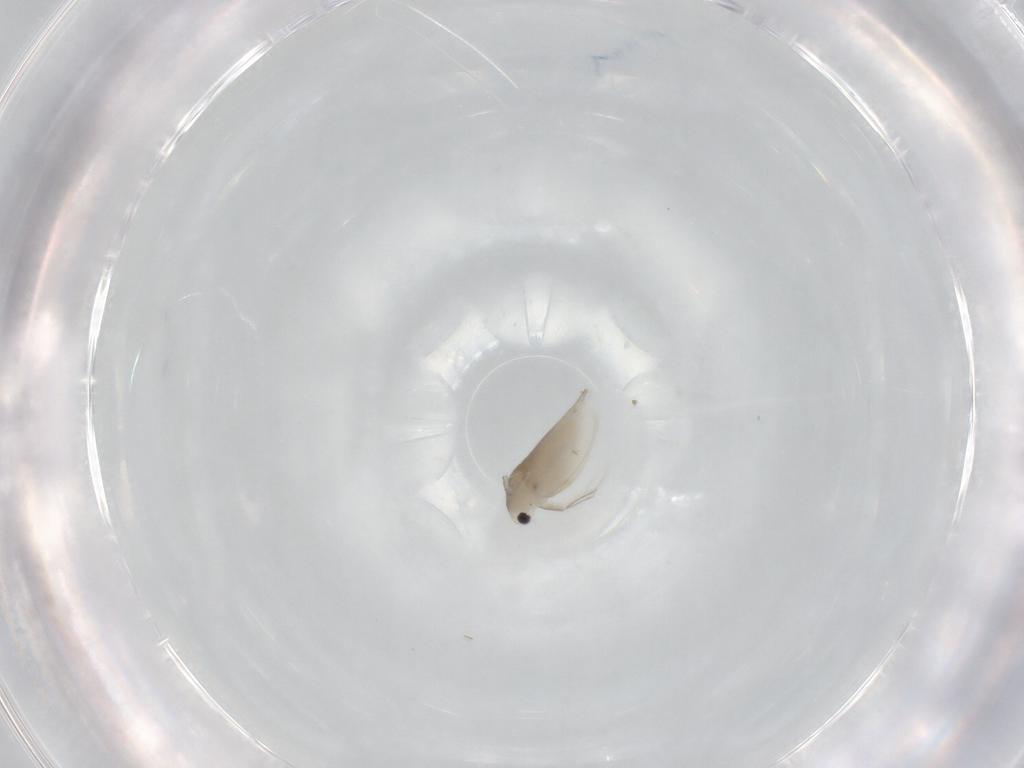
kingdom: Animalia
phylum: Arthropoda
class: Branchiopoda
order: Diplostraca
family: Daphniidae
